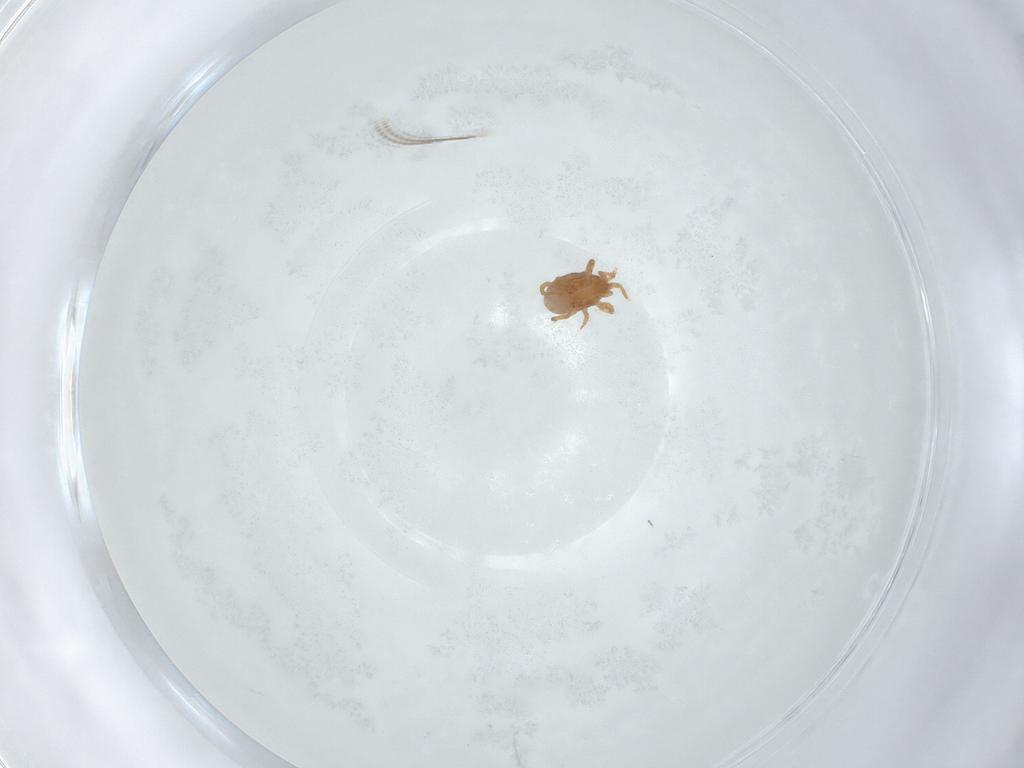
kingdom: Animalia
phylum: Arthropoda
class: Arachnida
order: Mesostigmata
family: Parasitidae
